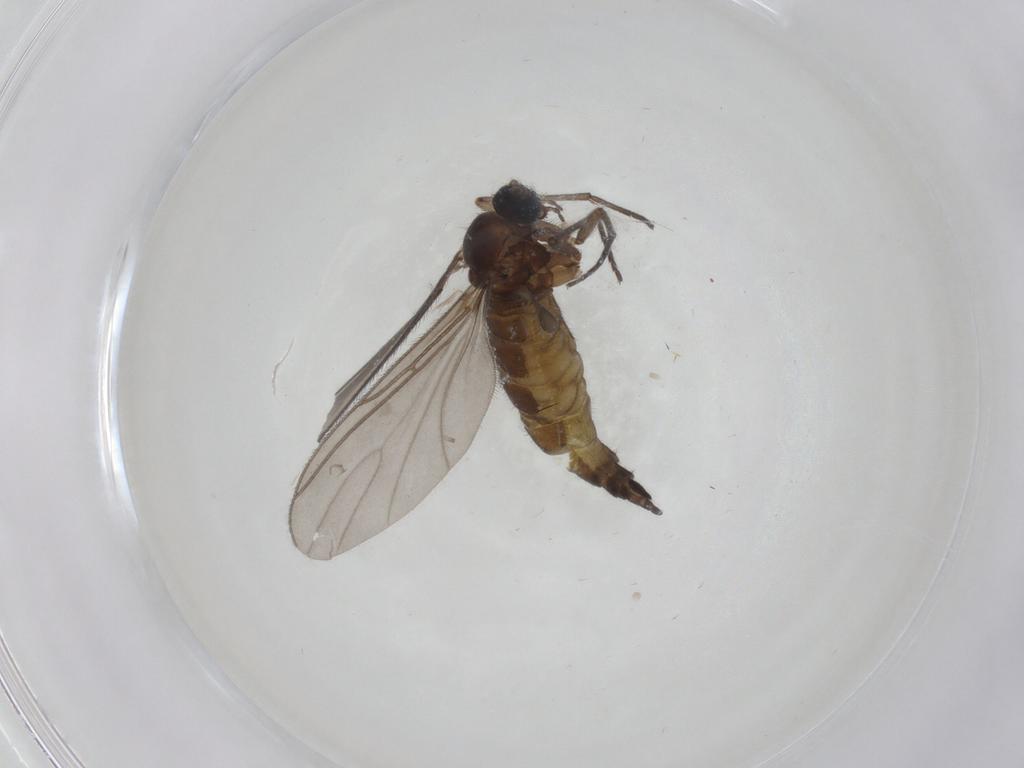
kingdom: Animalia
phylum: Arthropoda
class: Insecta
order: Diptera
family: Sciaridae
